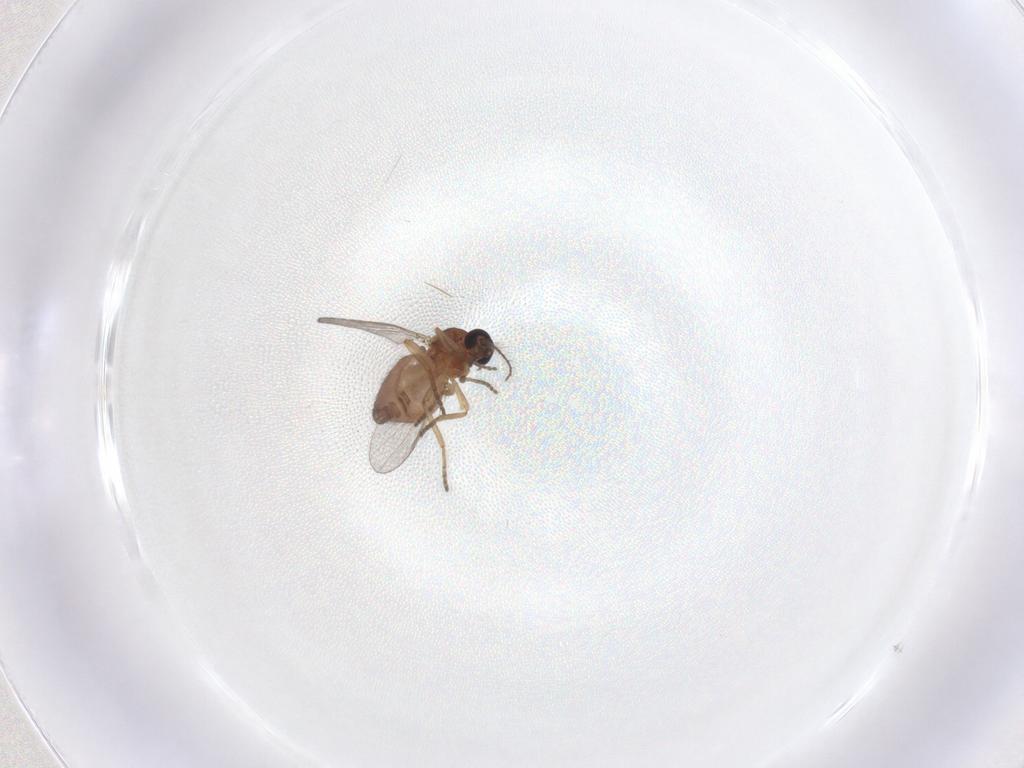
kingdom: Animalia
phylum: Arthropoda
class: Insecta
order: Diptera
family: Ceratopogonidae
